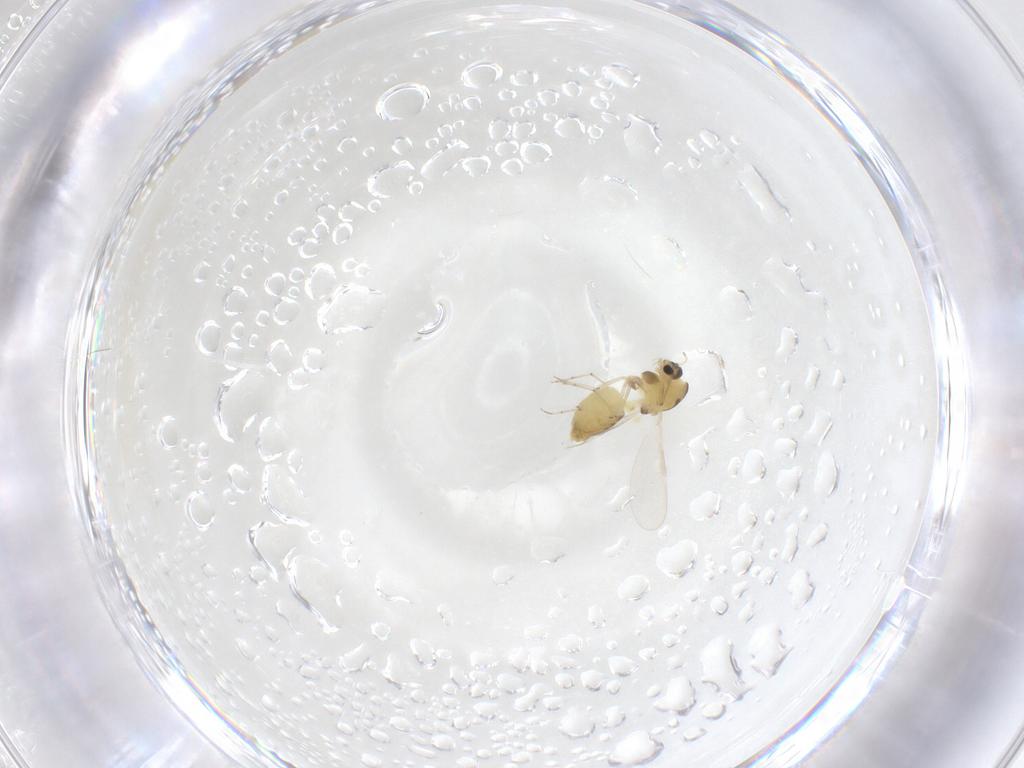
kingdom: Animalia
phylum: Arthropoda
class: Insecta
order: Diptera
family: Chironomidae
